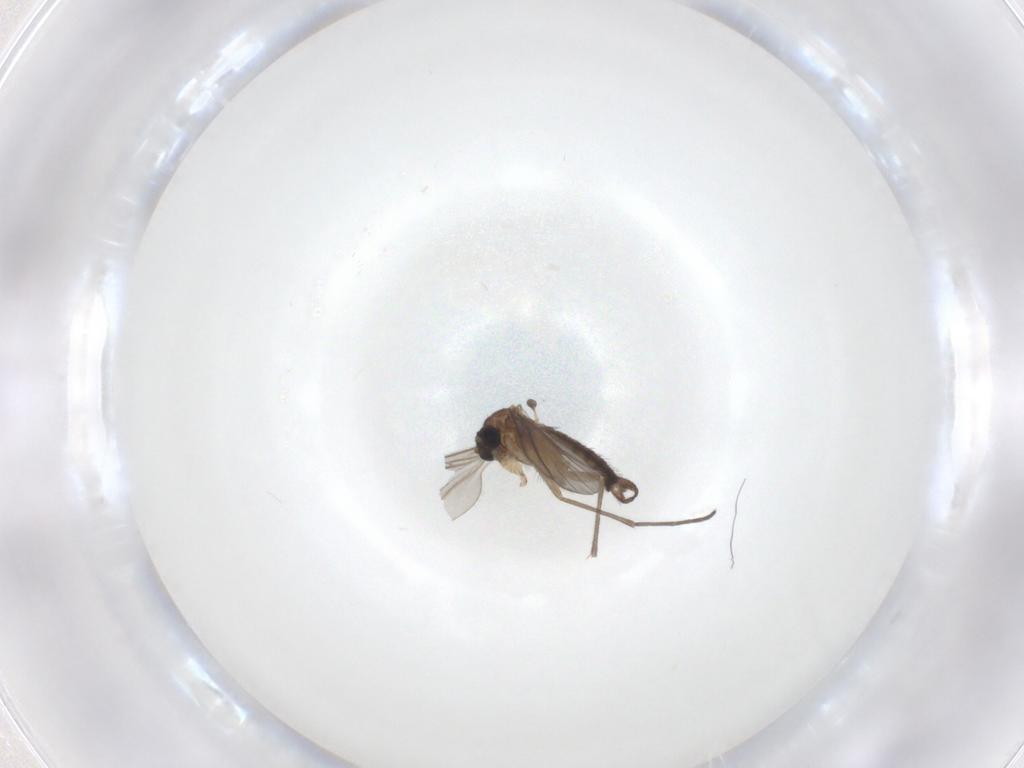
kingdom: Animalia
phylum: Arthropoda
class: Insecta
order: Diptera
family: Sciaridae
